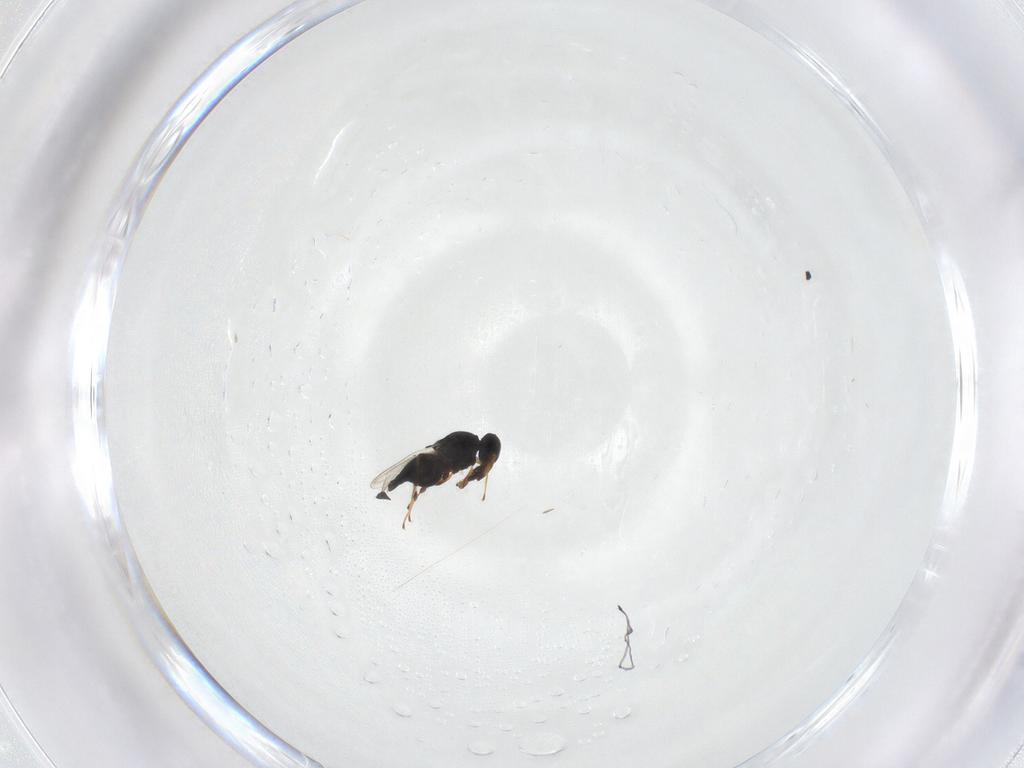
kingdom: Animalia
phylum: Arthropoda
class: Insecta
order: Hymenoptera
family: Platygastridae
